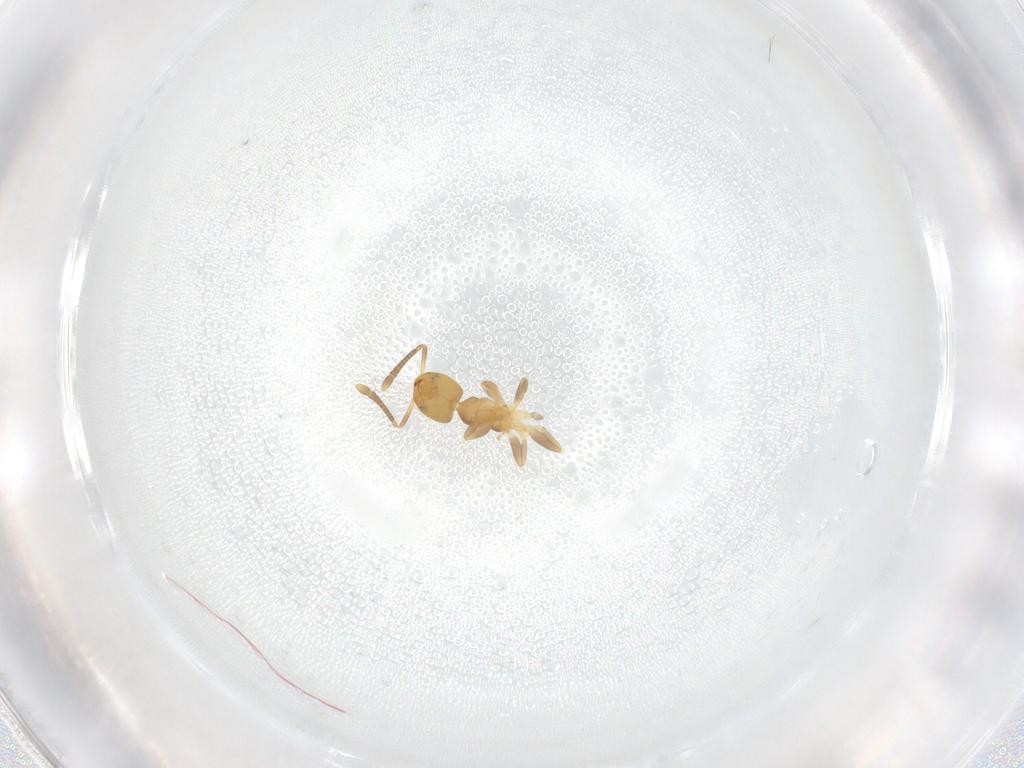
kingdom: Animalia
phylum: Arthropoda
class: Insecta
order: Hymenoptera
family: Formicidae
